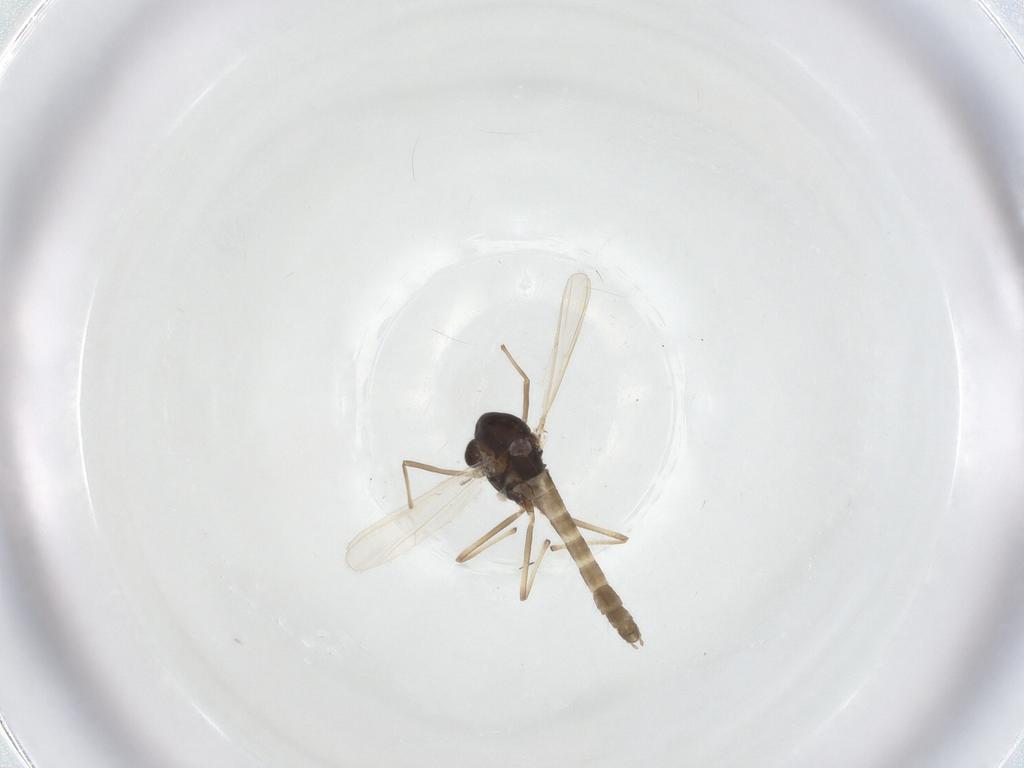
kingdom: Animalia
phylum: Arthropoda
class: Insecta
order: Diptera
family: Chironomidae
